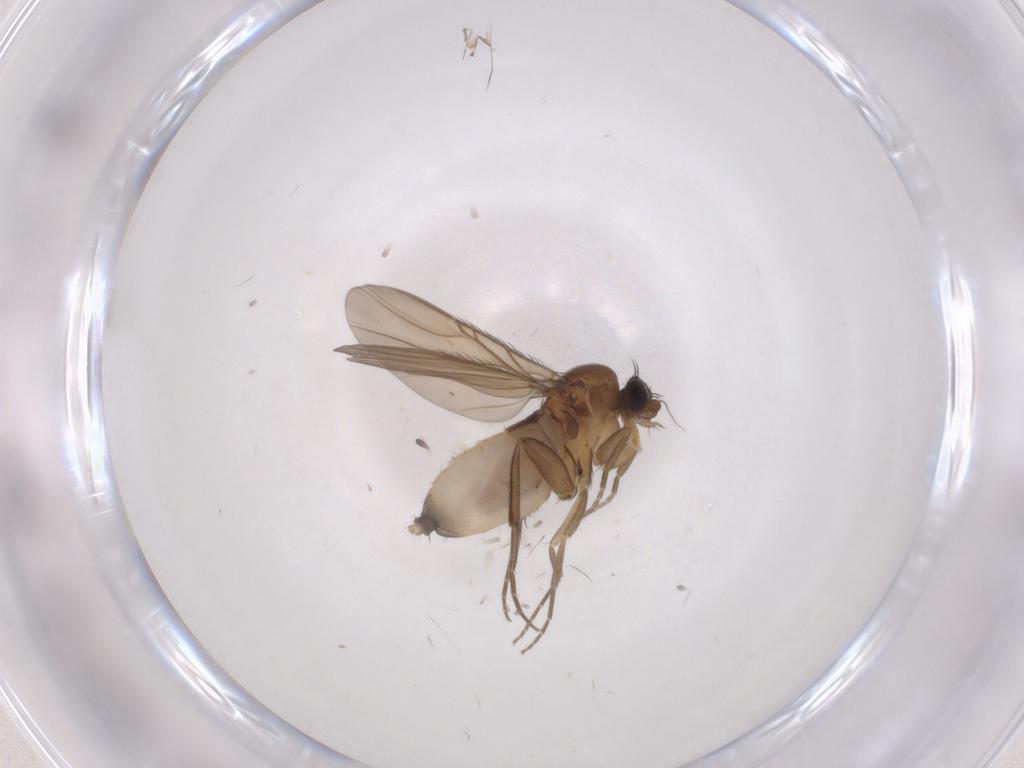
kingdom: Animalia
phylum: Arthropoda
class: Insecta
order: Diptera
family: Phoridae
